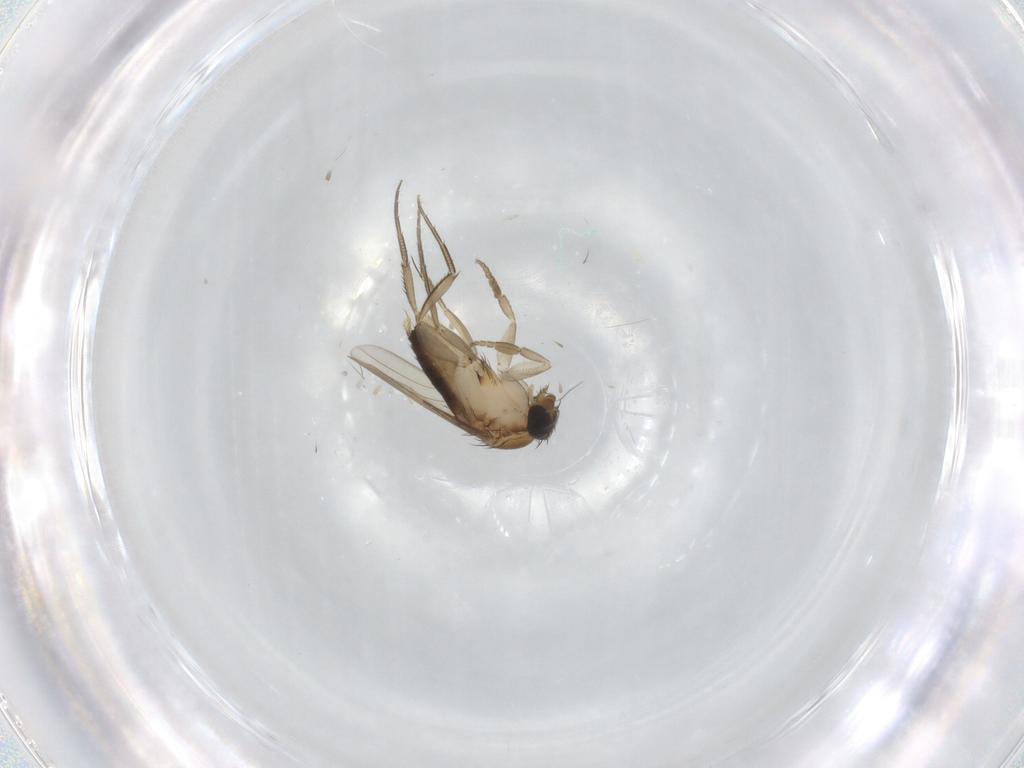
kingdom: Animalia
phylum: Arthropoda
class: Insecta
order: Diptera
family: Phoridae
